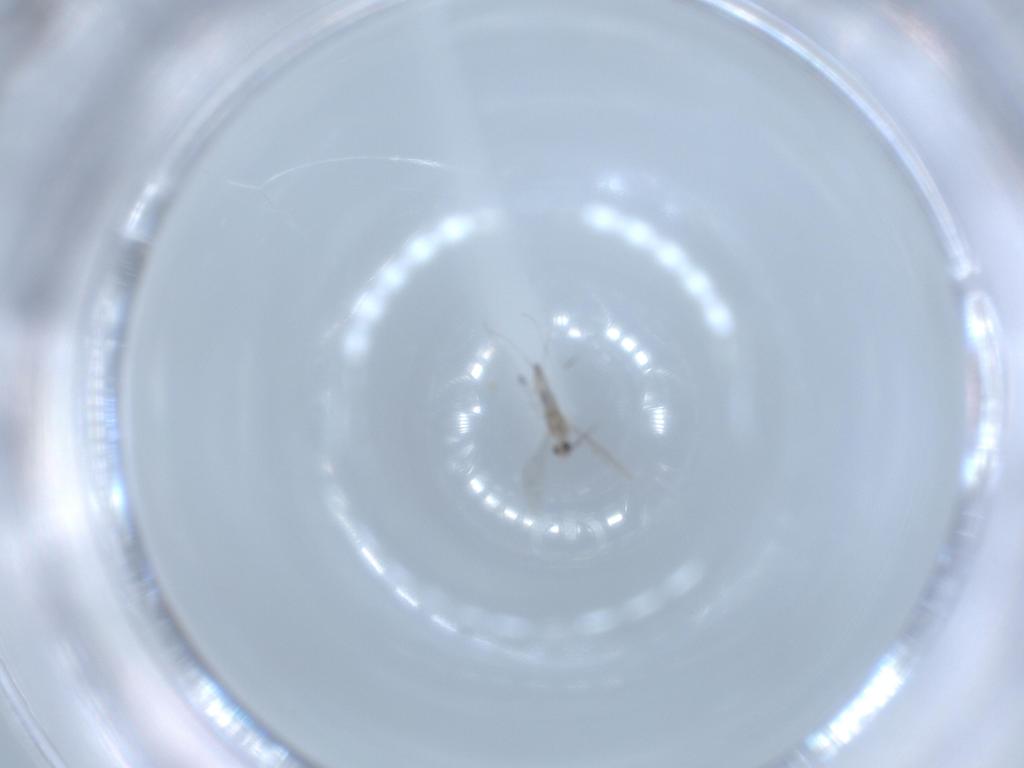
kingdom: Animalia
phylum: Arthropoda
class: Insecta
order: Diptera
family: Cecidomyiidae
